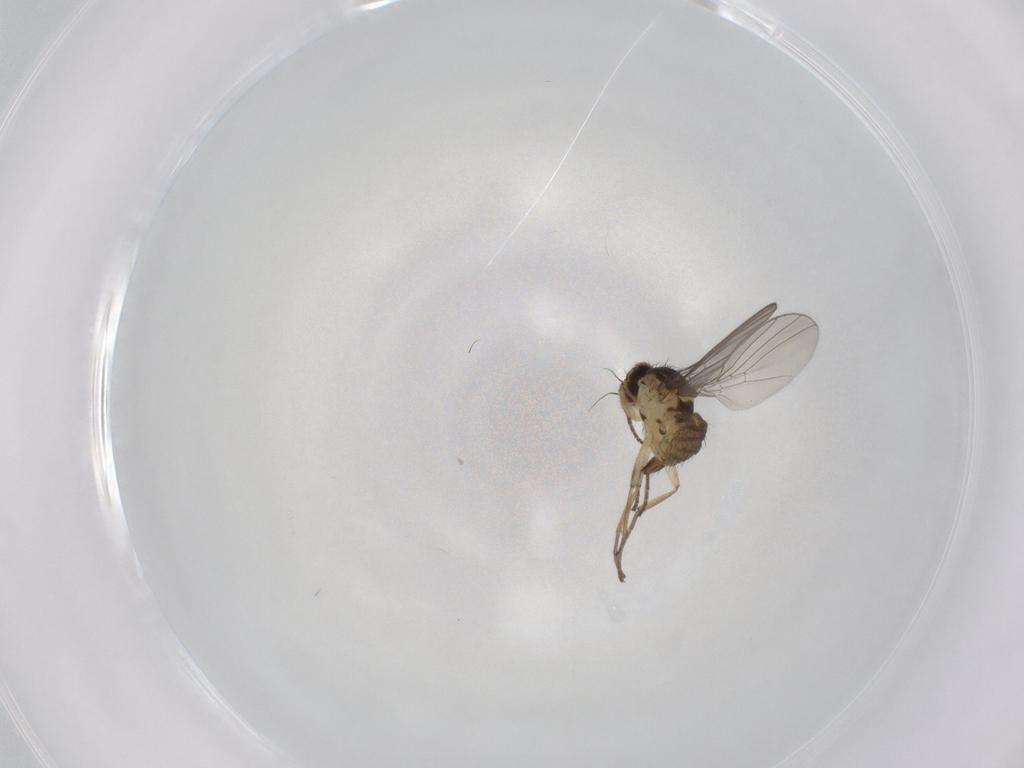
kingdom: Animalia
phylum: Arthropoda
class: Insecta
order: Diptera
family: Agromyzidae
